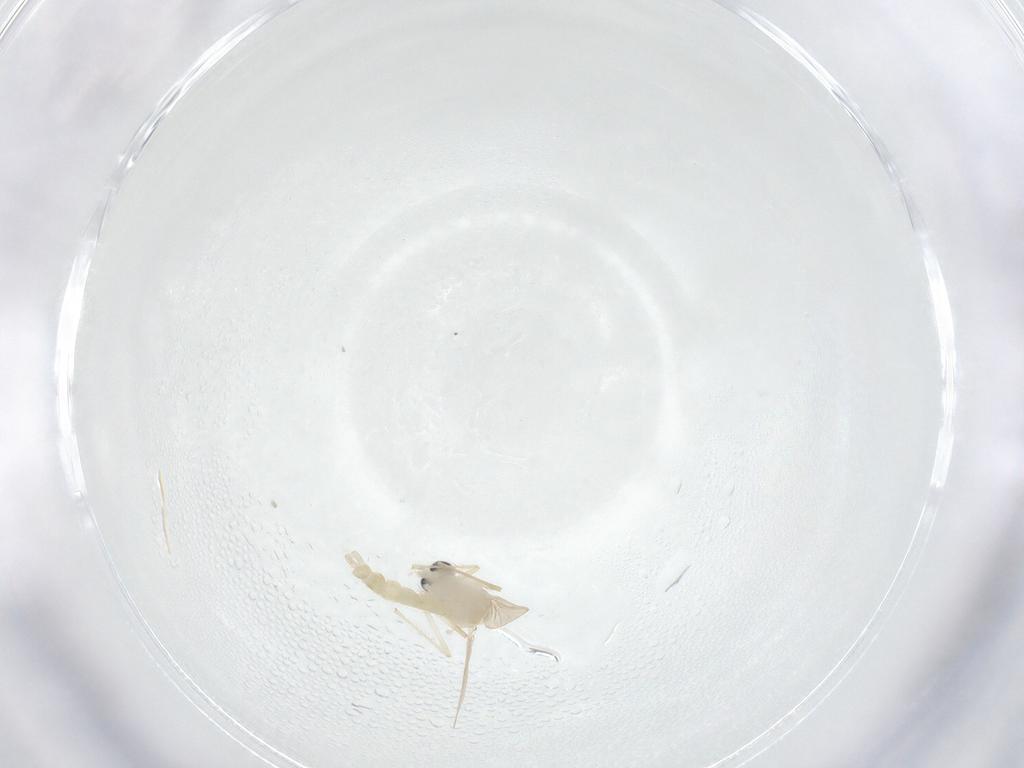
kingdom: Animalia
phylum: Arthropoda
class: Insecta
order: Diptera
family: Chironomidae
